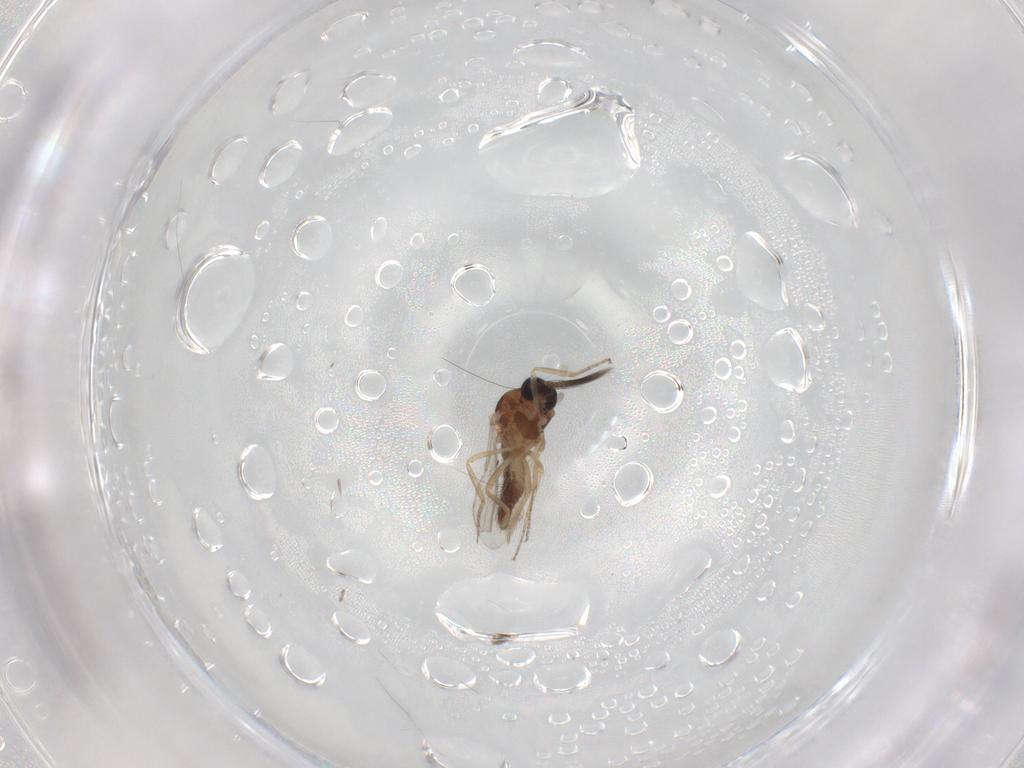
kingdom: Animalia
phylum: Arthropoda
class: Insecta
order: Diptera
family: Ceratopogonidae
